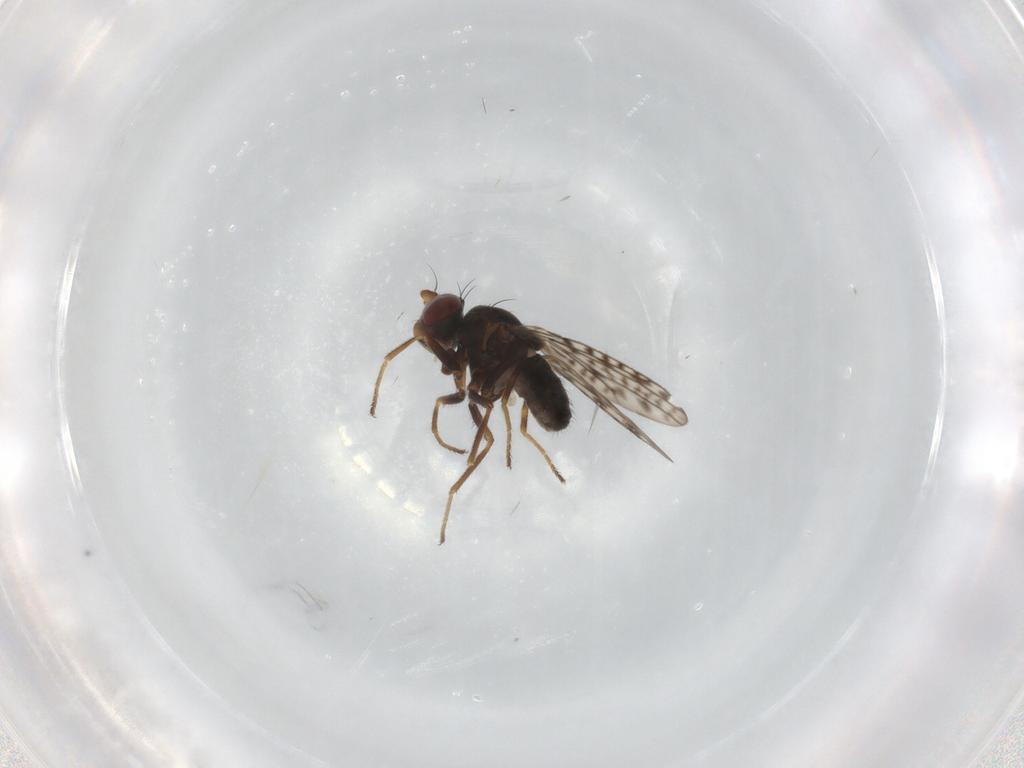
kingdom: Animalia
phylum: Arthropoda
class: Insecta
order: Diptera
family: Ephydridae
